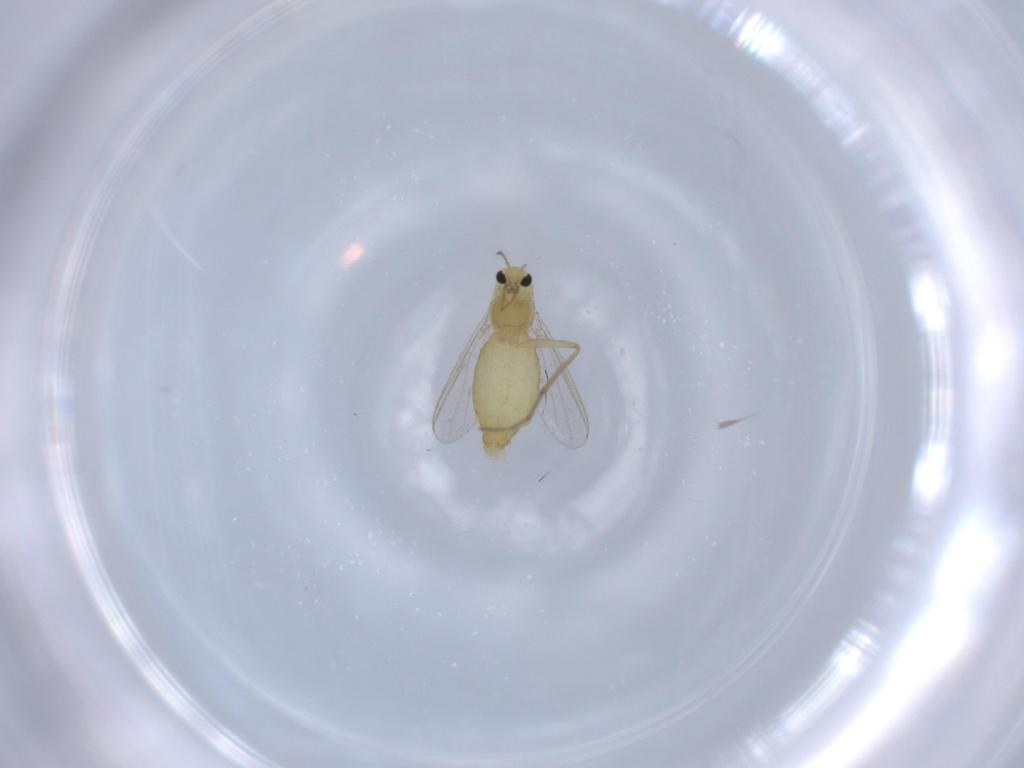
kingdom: Animalia
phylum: Arthropoda
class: Insecta
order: Diptera
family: Chironomidae
